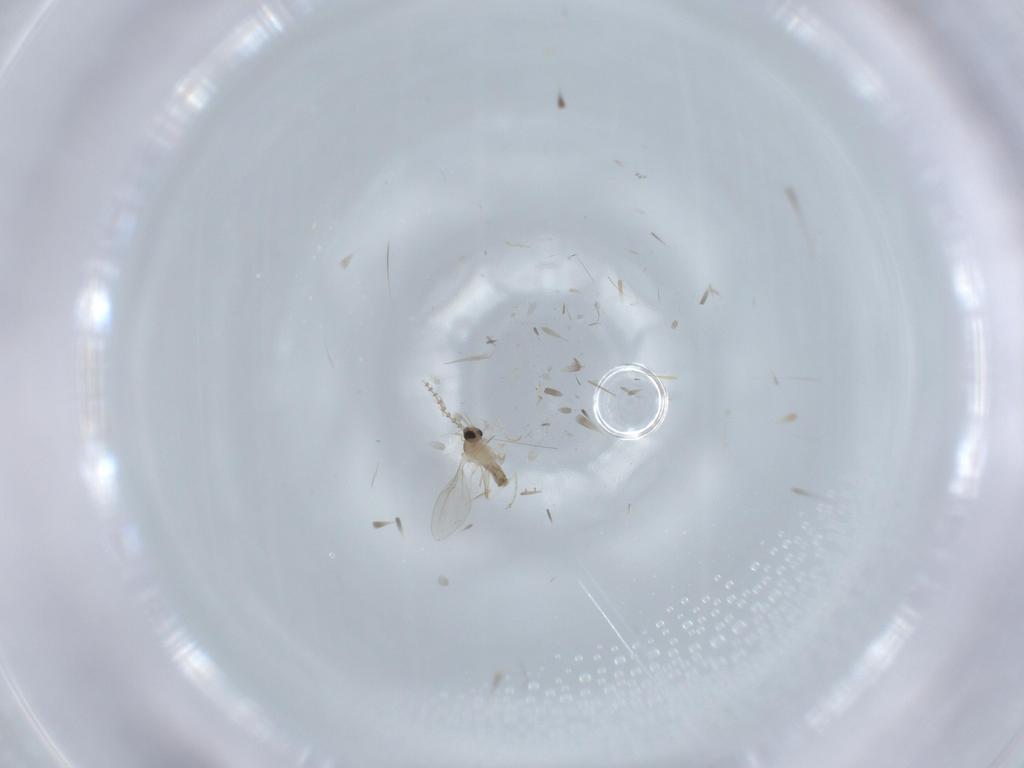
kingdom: Animalia
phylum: Arthropoda
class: Insecta
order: Diptera
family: Cecidomyiidae
